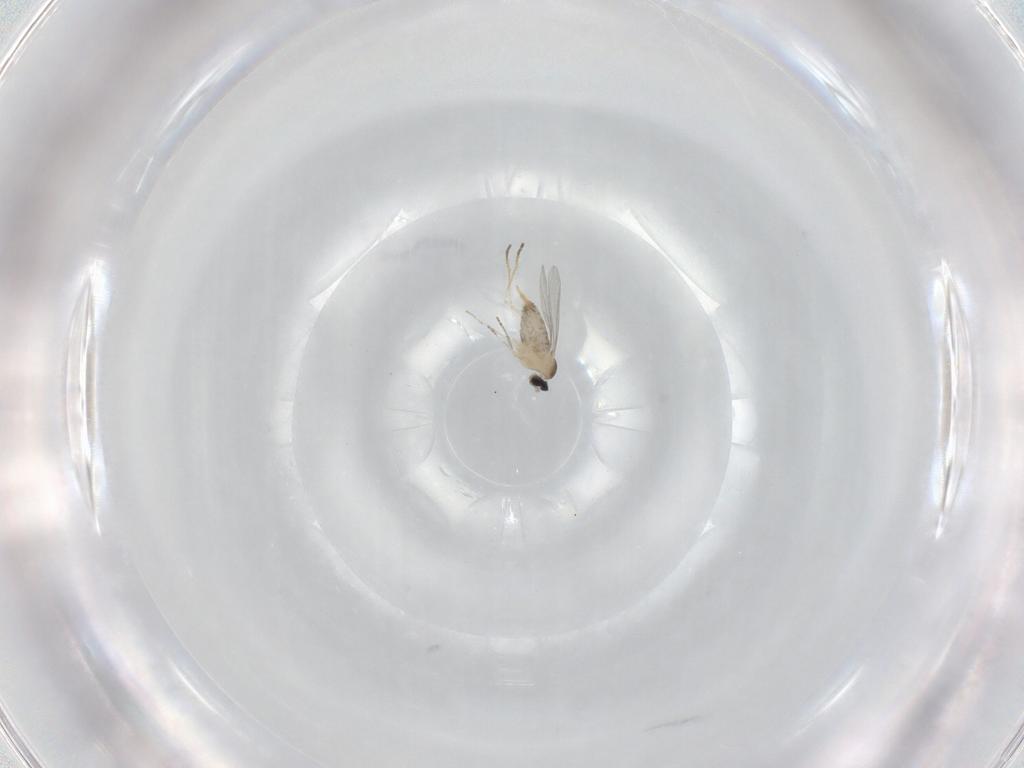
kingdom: Animalia
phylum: Arthropoda
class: Insecta
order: Diptera
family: Cecidomyiidae
